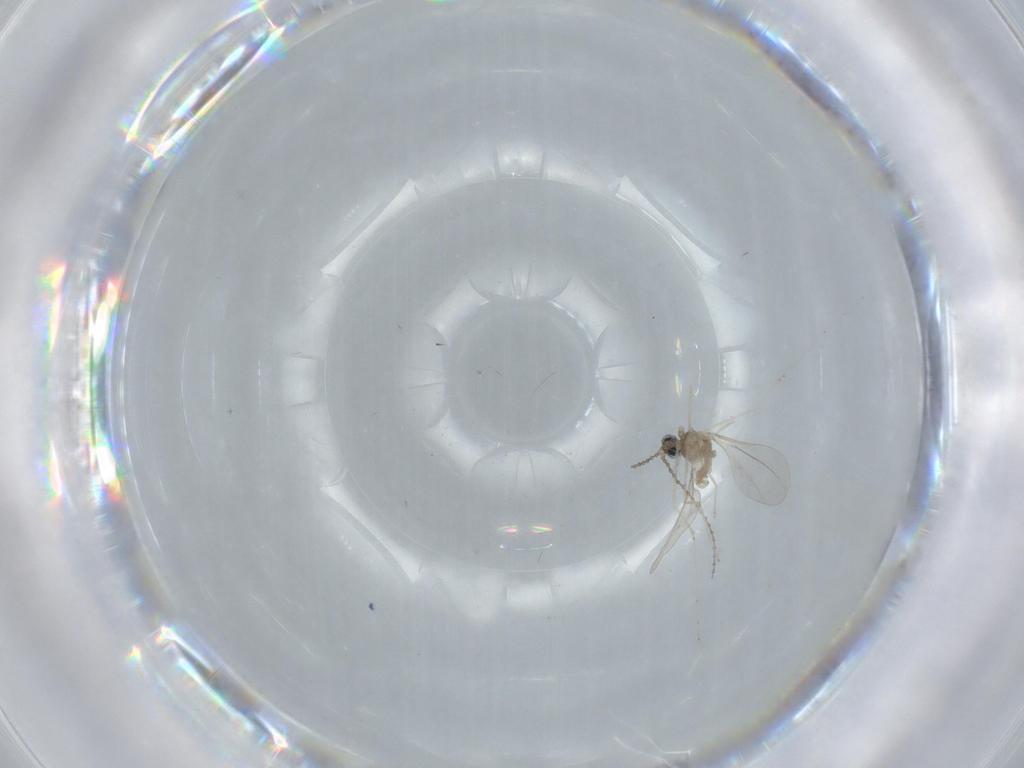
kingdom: Animalia
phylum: Arthropoda
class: Insecta
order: Diptera
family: Cecidomyiidae
